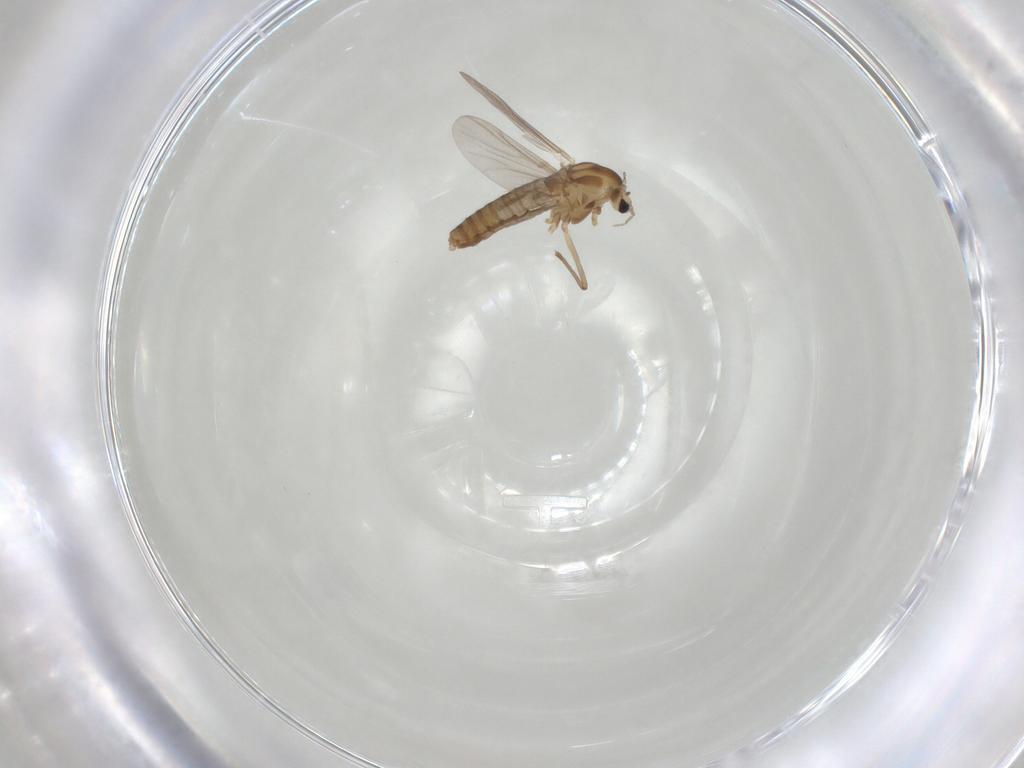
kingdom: Animalia
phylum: Arthropoda
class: Insecta
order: Diptera
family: Chironomidae
